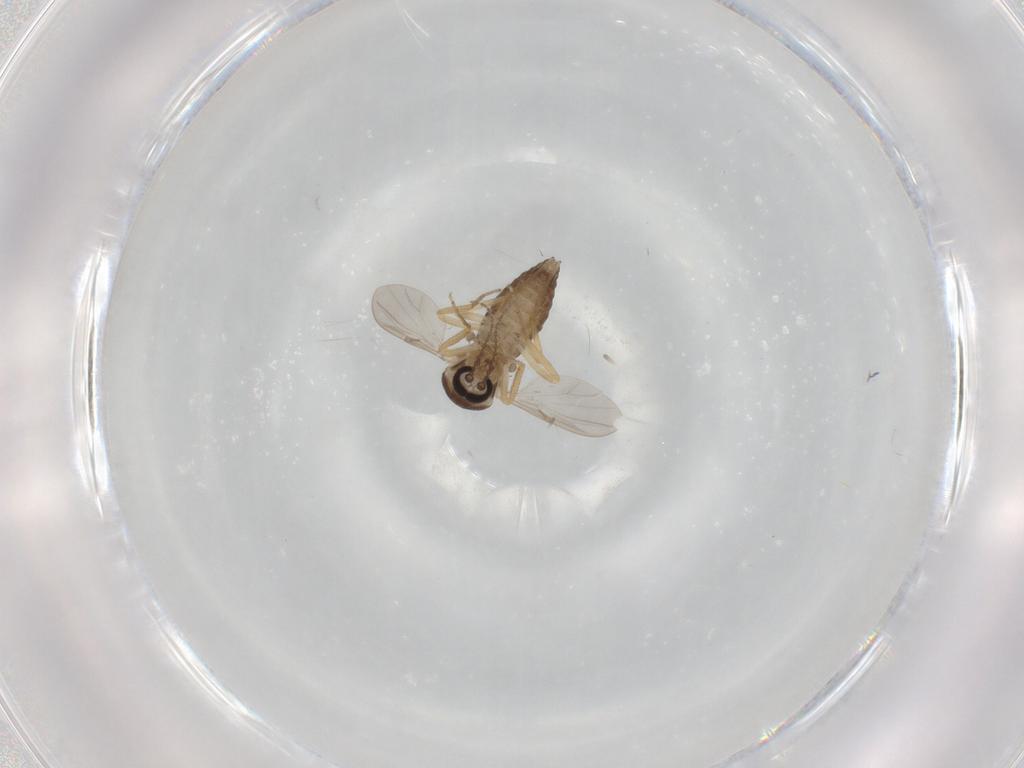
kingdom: Animalia
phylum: Arthropoda
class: Insecta
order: Diptera
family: Ceratopogonidae
